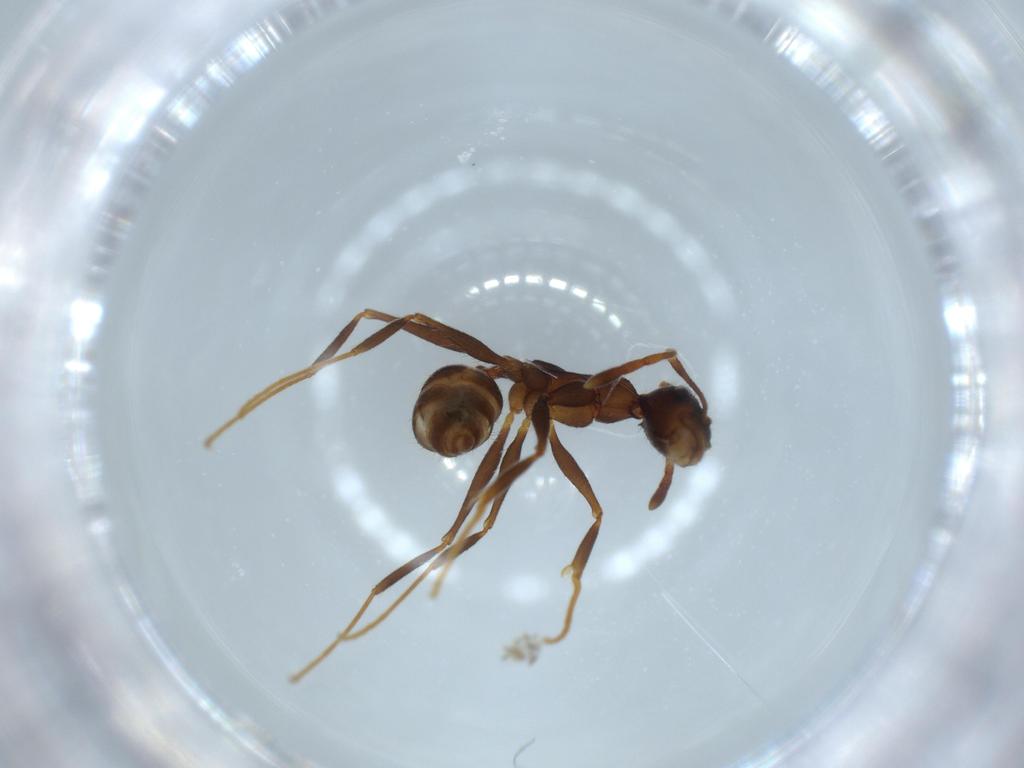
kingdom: Animalia
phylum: Arthropoda
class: Insecta
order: Hymenoptera
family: Formicidae
